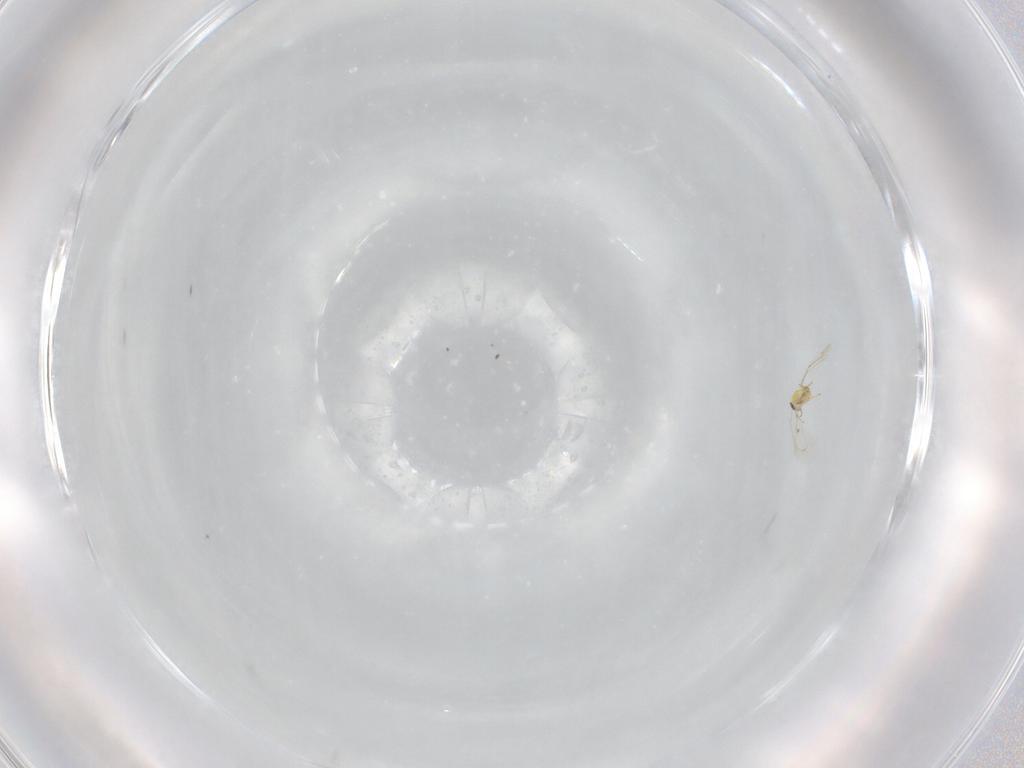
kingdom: Animalia
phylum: Arthropoda
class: Insecta
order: Hymenoptera
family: Trichogrammatidae
